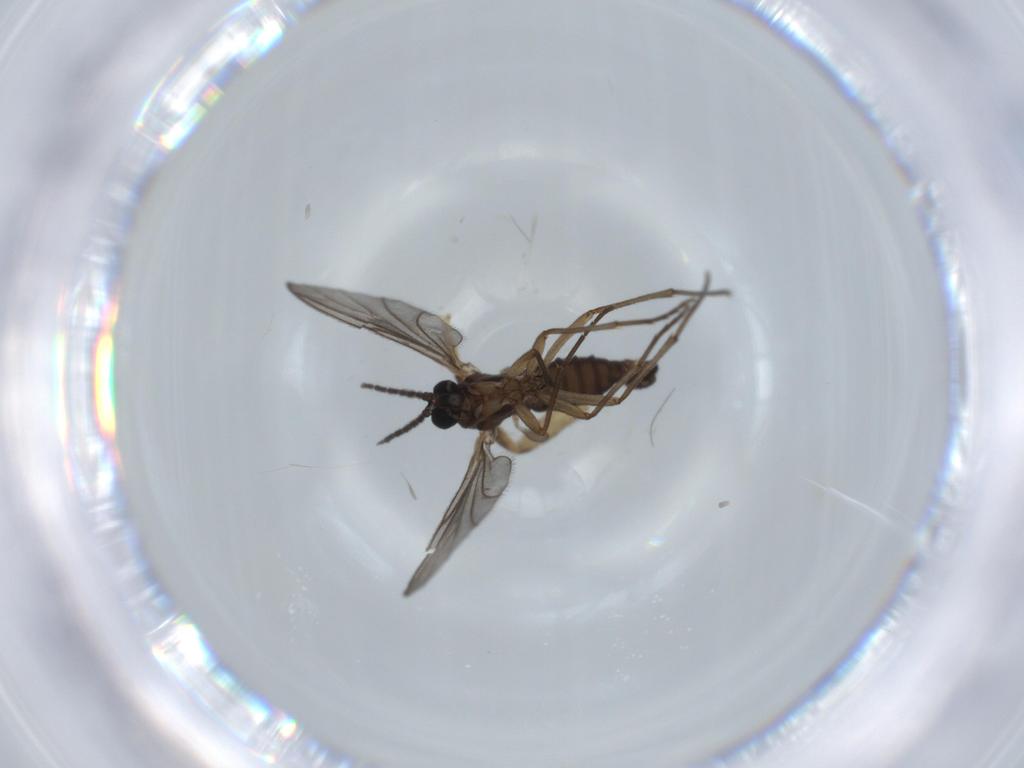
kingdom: Animalia
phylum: Arthropoda
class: Insecta
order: Diptera
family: Sciaridae
